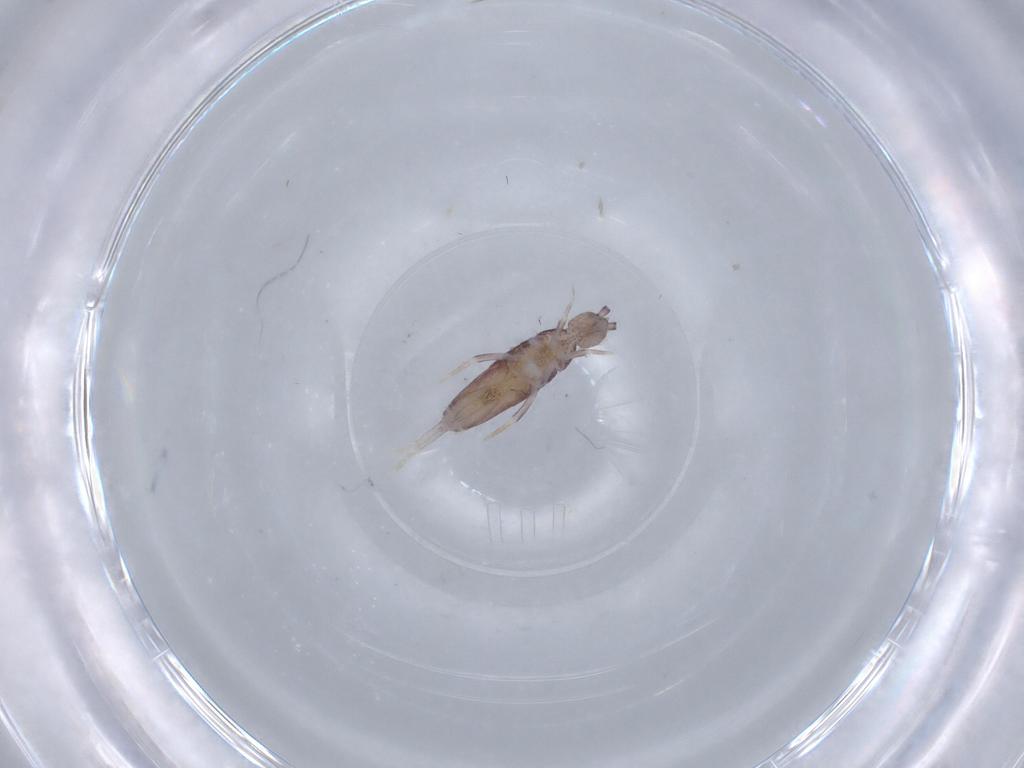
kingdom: Animalia
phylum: Arthropoda
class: Collembola
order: Poduromorpha
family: Hypogastruridae
